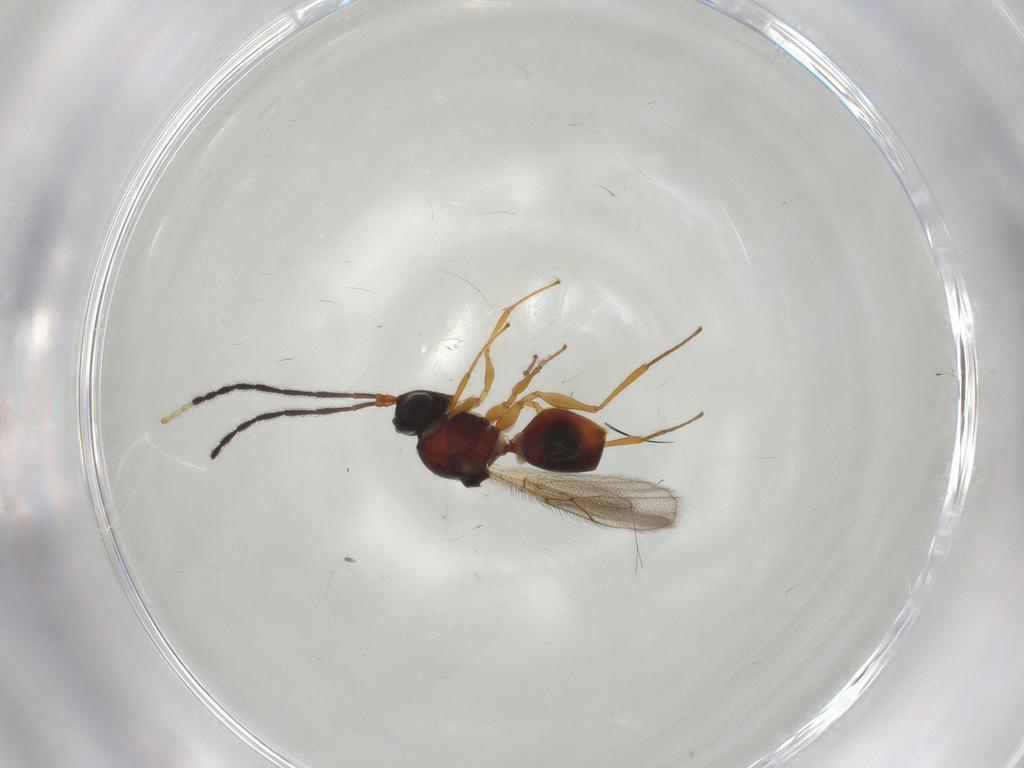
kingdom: Animalia
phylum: Arthropoda
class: Insecta
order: Hymenoptera
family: Figitidae
